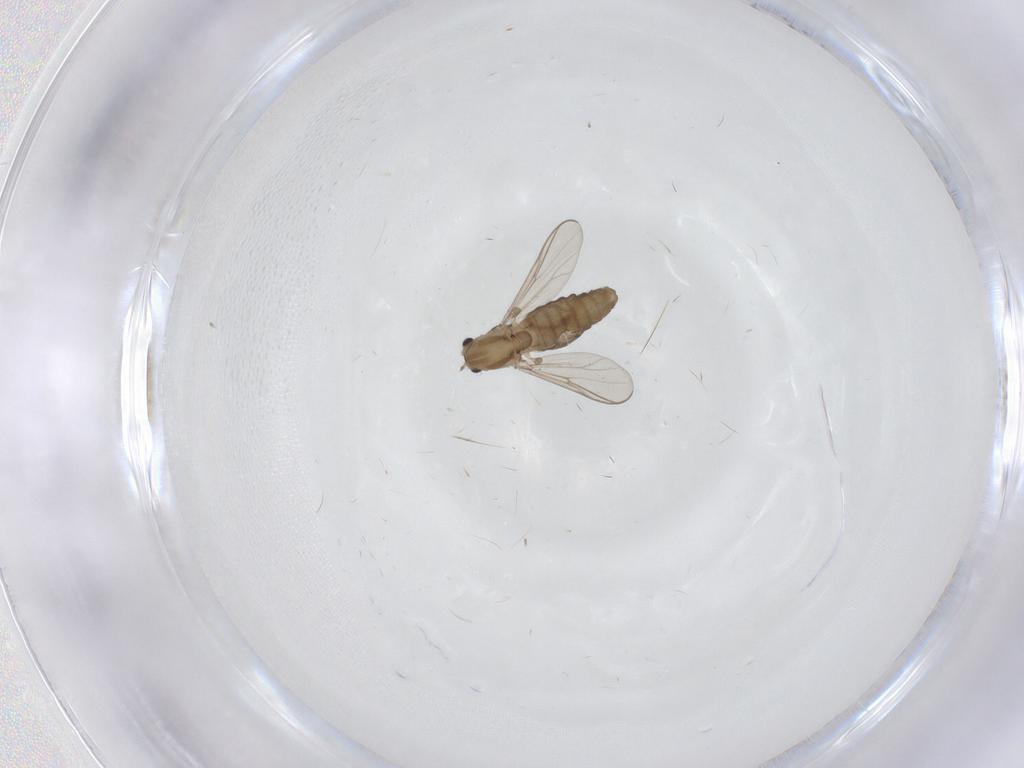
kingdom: Animalia
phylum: Arthropoda
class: Insecta
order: Diptera
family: Chironomidae
